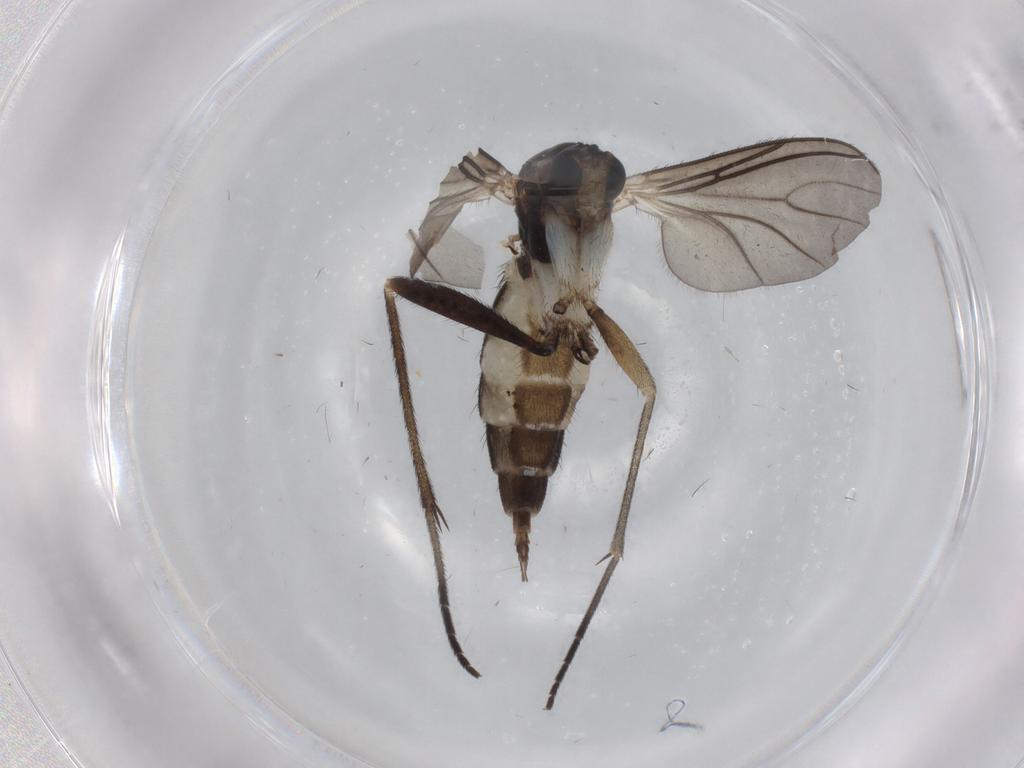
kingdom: Animalia
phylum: Arthropoda
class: Insecta
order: Diptera
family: Sciaridae
